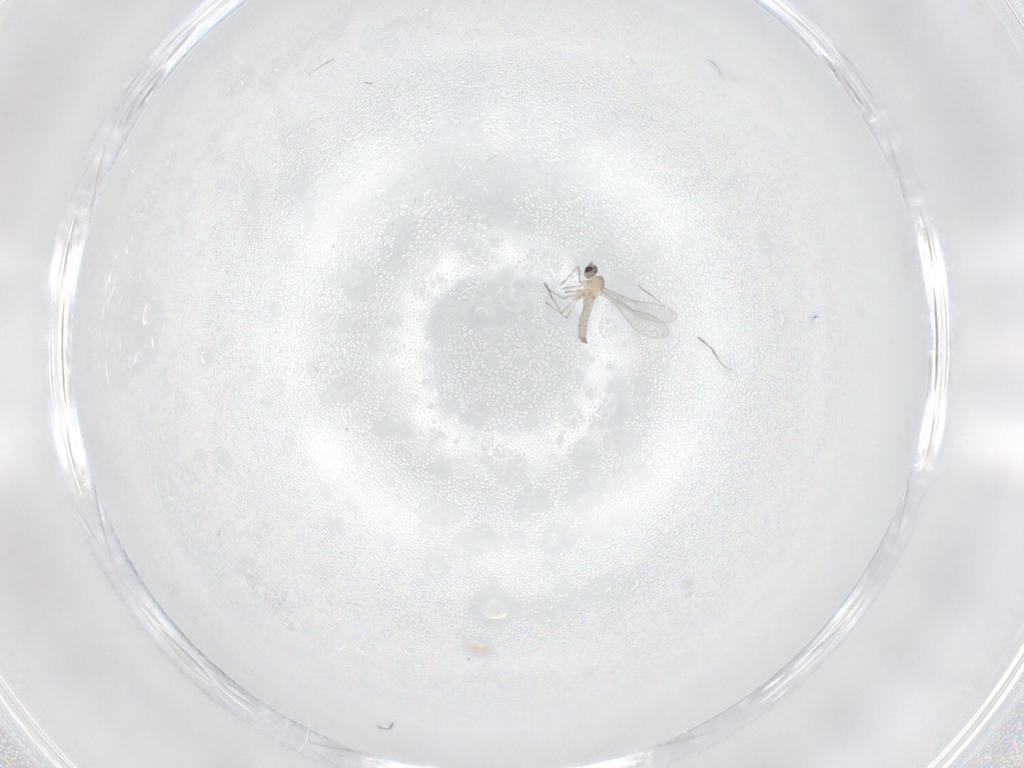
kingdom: Animalia
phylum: Arthropoda
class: Insecta
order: Diptera
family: Cecidomyiidae
